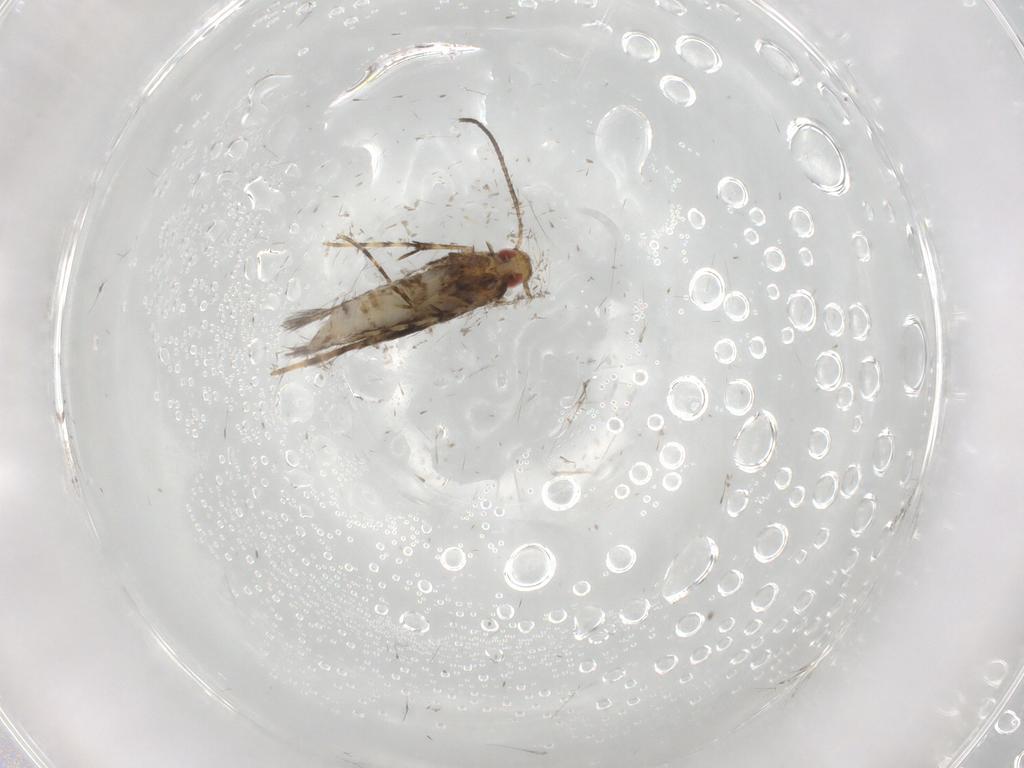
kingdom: Animalia
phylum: Arthropoda
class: Insecta
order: Lepidoptera
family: Gracillariidae
